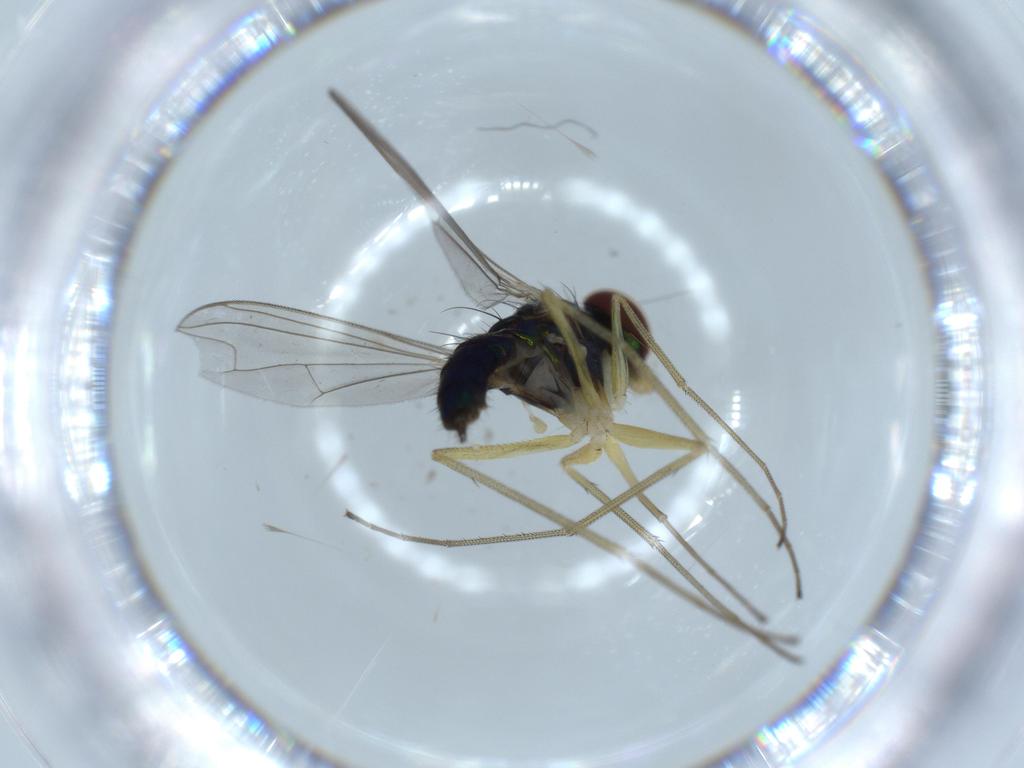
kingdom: Animalia
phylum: Arthropoda
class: Insecta
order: Diptera
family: Dolichopodidae
